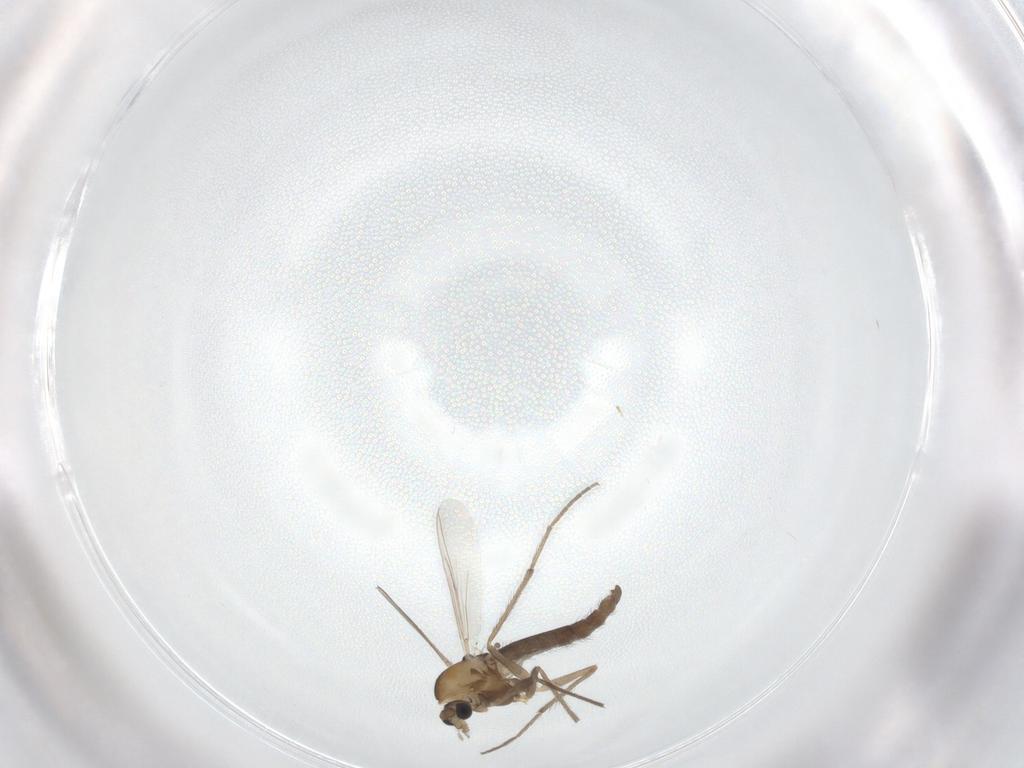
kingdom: Animalia
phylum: Arthropoda
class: Insecta
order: Diptera
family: Chironomidae
